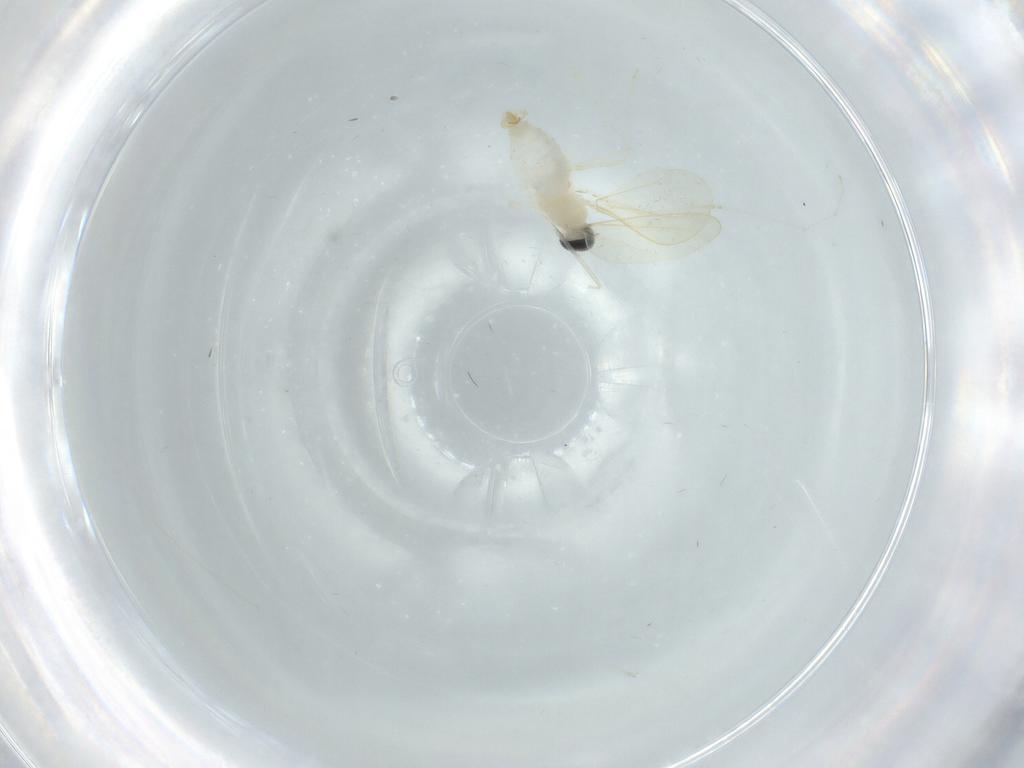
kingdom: Animalia
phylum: Arthropoda
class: Insecta
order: Diptera
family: Cecidomyiidae
